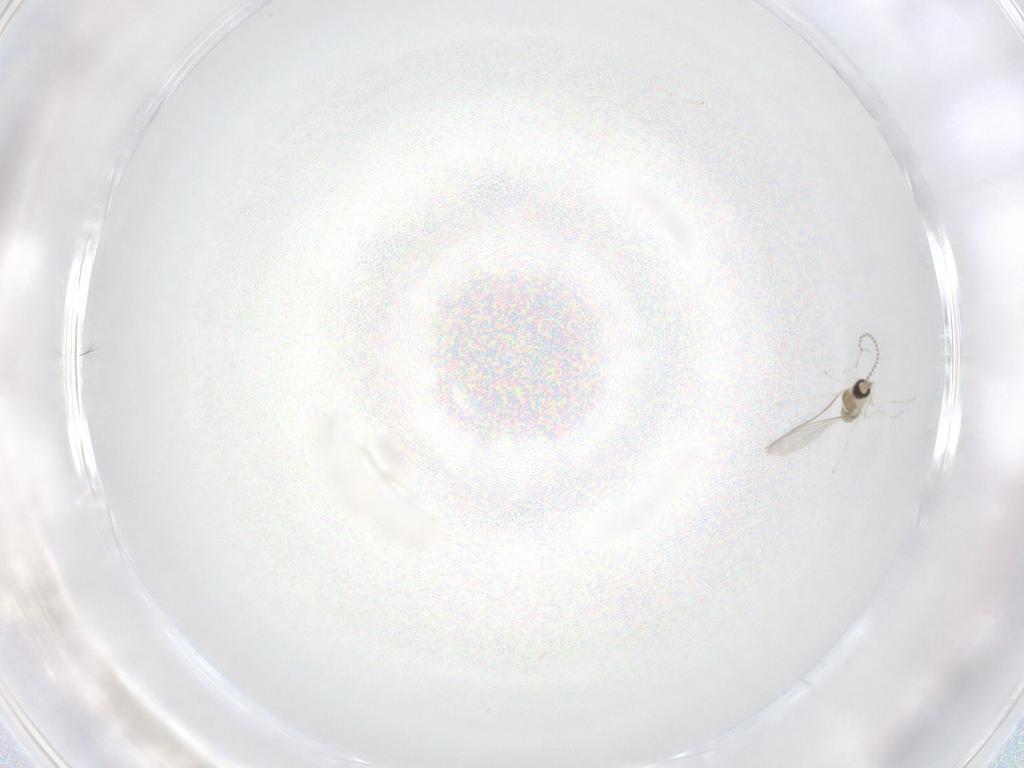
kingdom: Animalia
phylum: Arthropoda
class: Insecta
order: Diptera
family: Cecidomyiidae
